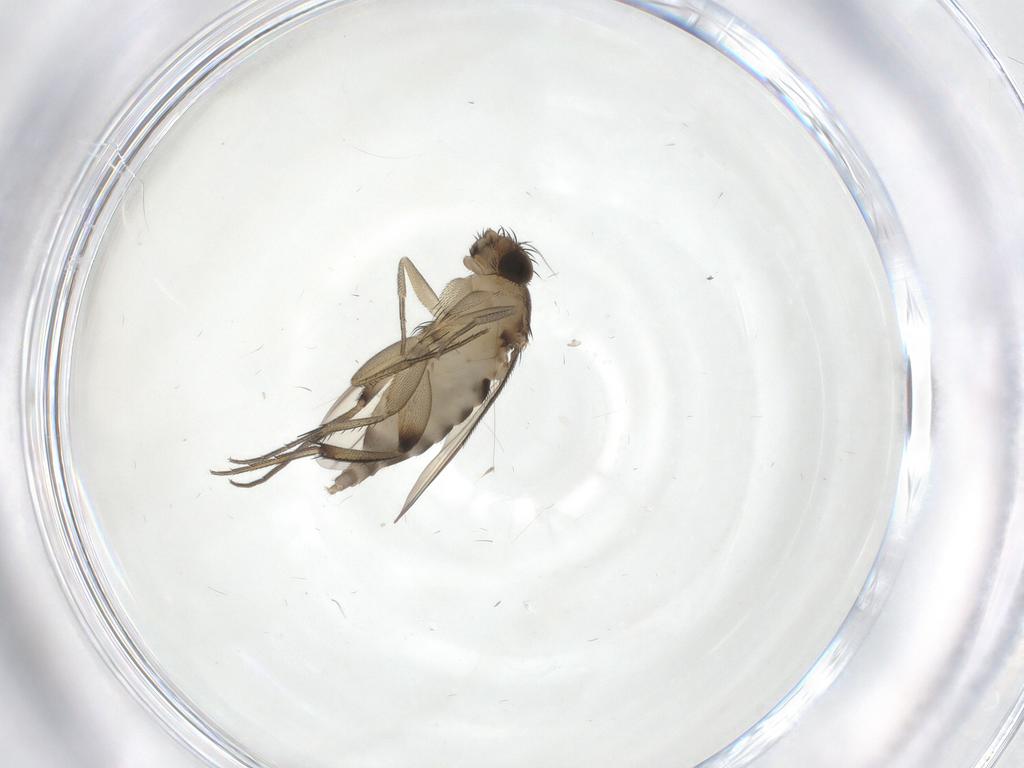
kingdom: Animalia
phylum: Arthropoda
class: Insecta
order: Diptera
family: Phoridae
